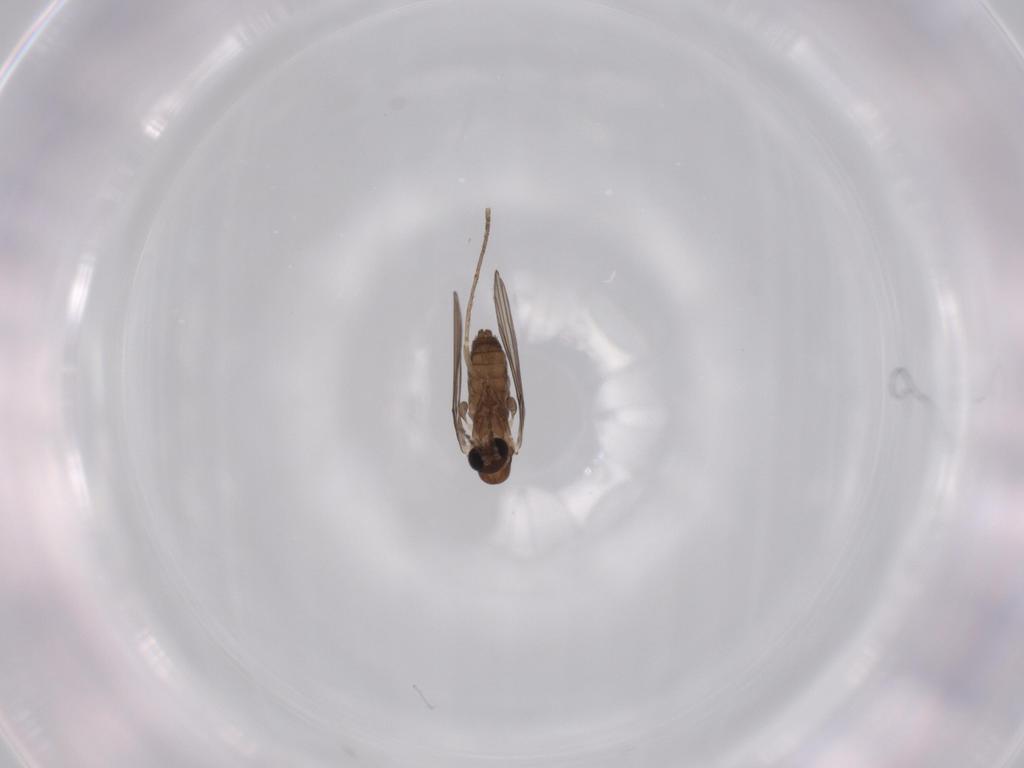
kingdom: Animalia
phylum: Arthropoda
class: Insecta
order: Diptera
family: Psychodidae
